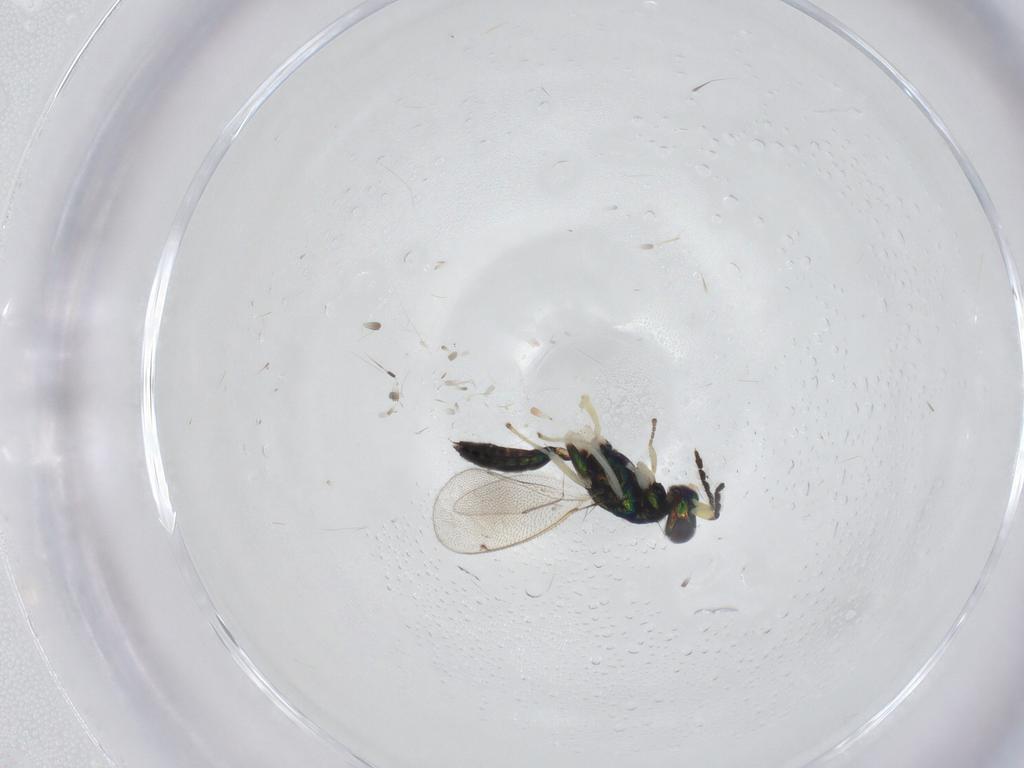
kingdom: Animalia
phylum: Arthropoda
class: Insecta
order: Hymenoptera
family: Eulophidae
